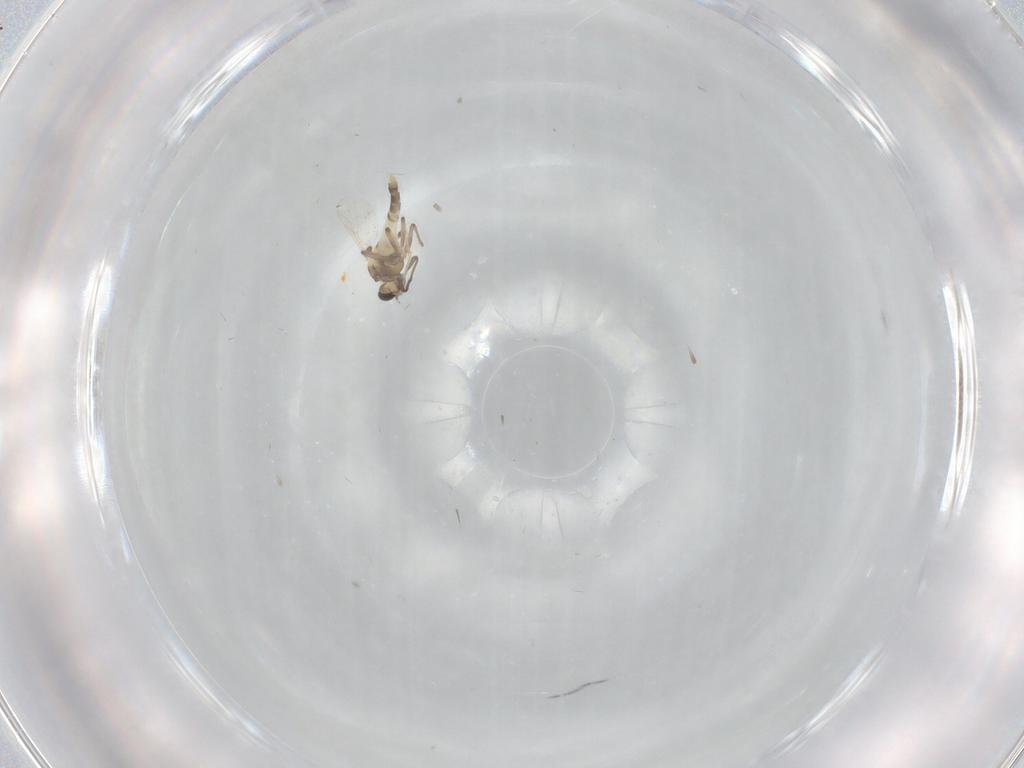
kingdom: Animalia
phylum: Arthropoda
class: Insecta
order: Diptera
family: Chironomidae
